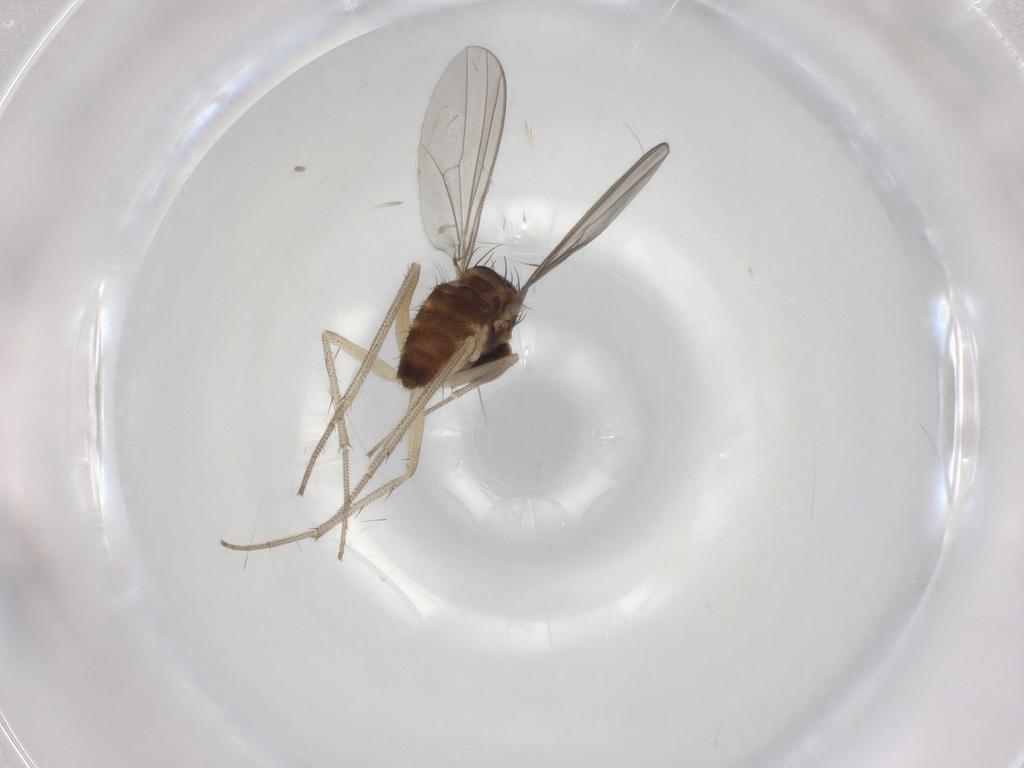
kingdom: Animalia
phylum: Arthropoda
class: Insecta
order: Diptera
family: Dolichopodidae
